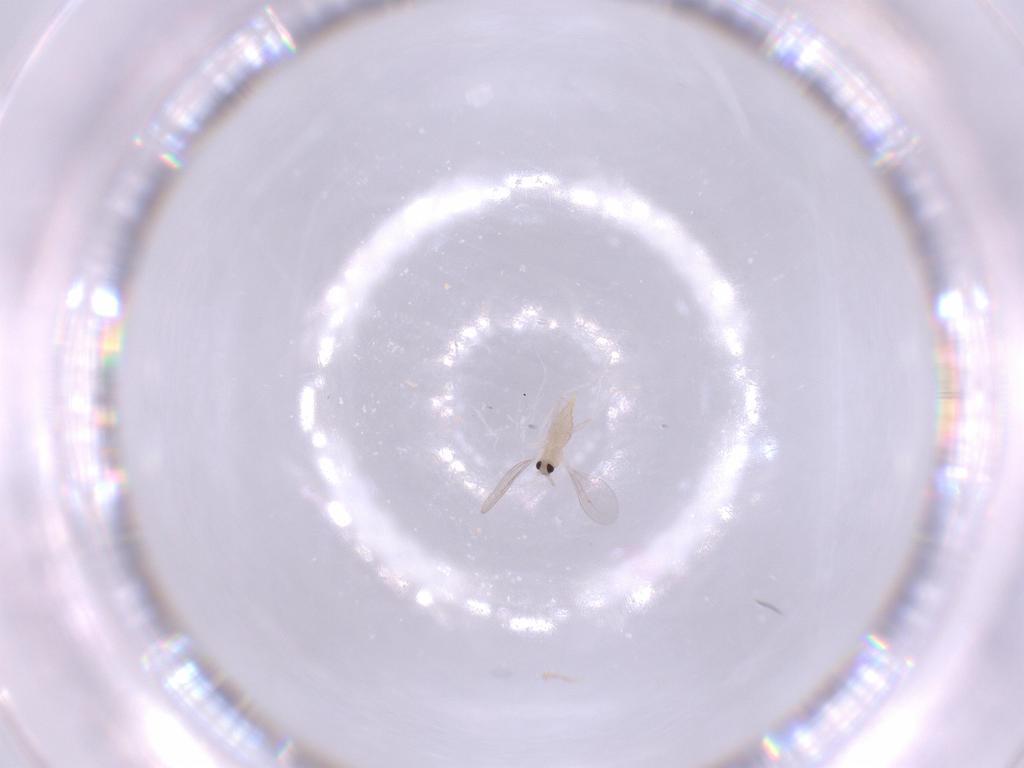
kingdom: Animalia
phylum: Arthropoda
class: Insecta
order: Diptera
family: Cecidomyiidae
